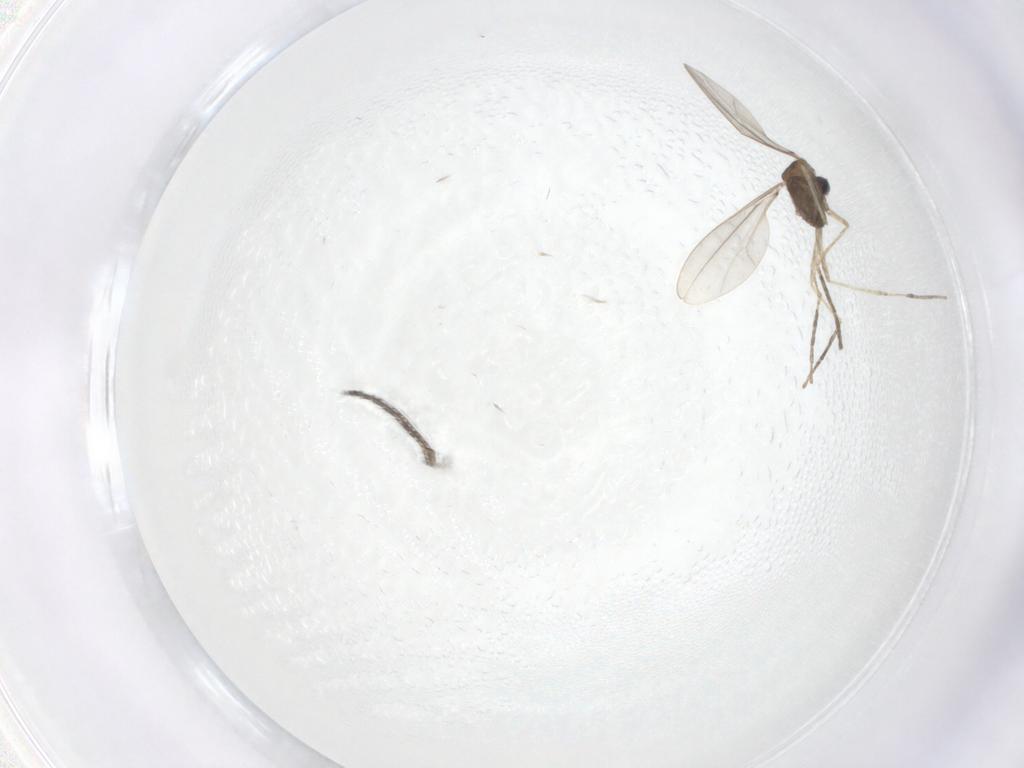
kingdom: Animalia
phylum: Arthropoda
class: Insecta
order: Diptera
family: Cecidomyiidae
